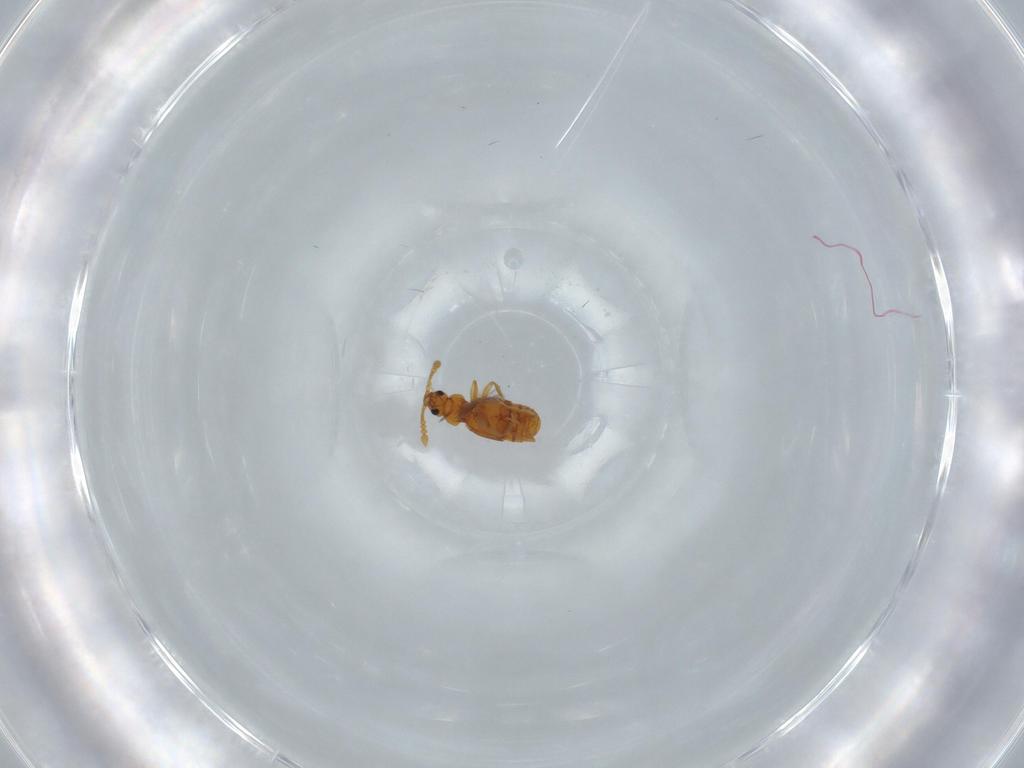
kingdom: Animalia
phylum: Arthropoda
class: Insecta
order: Coleoptera
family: Staphylinidae
